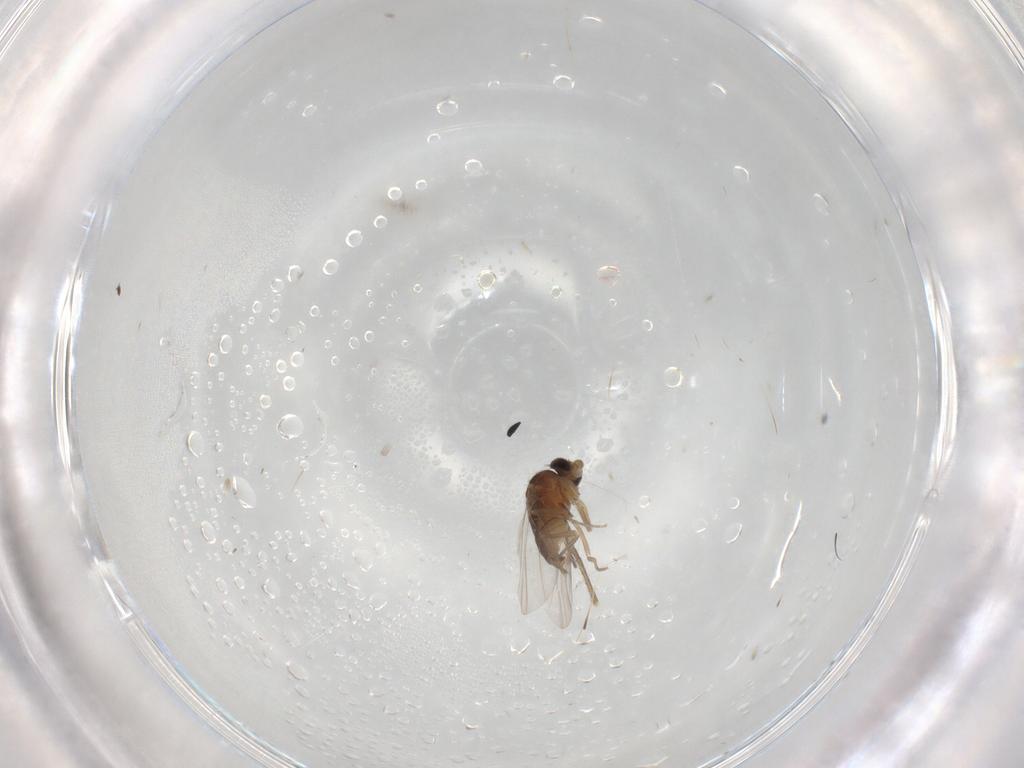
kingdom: Animalia
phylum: Arthropoda
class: Insecta
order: Diptera
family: Phoridae
